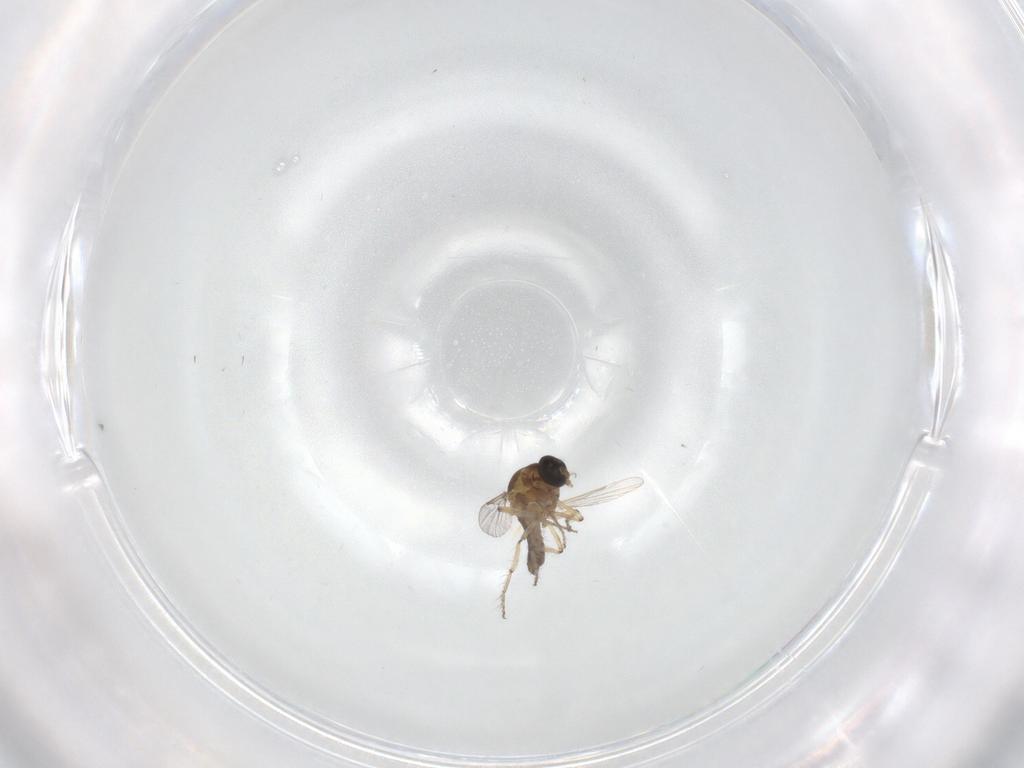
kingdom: Animalia
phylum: Arthropoda
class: Insecta
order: Diptera
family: Ceratopogonidae
